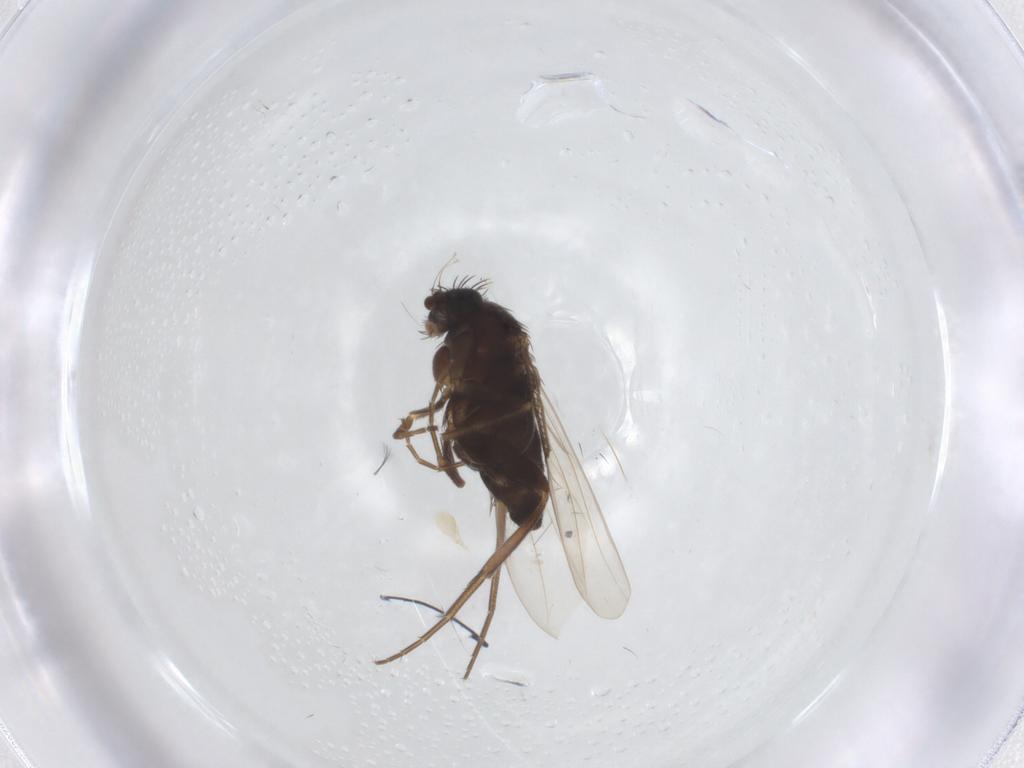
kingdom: Animalia
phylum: Arthropoda
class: Insecta
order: Diptera
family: Ceratopogonidae
